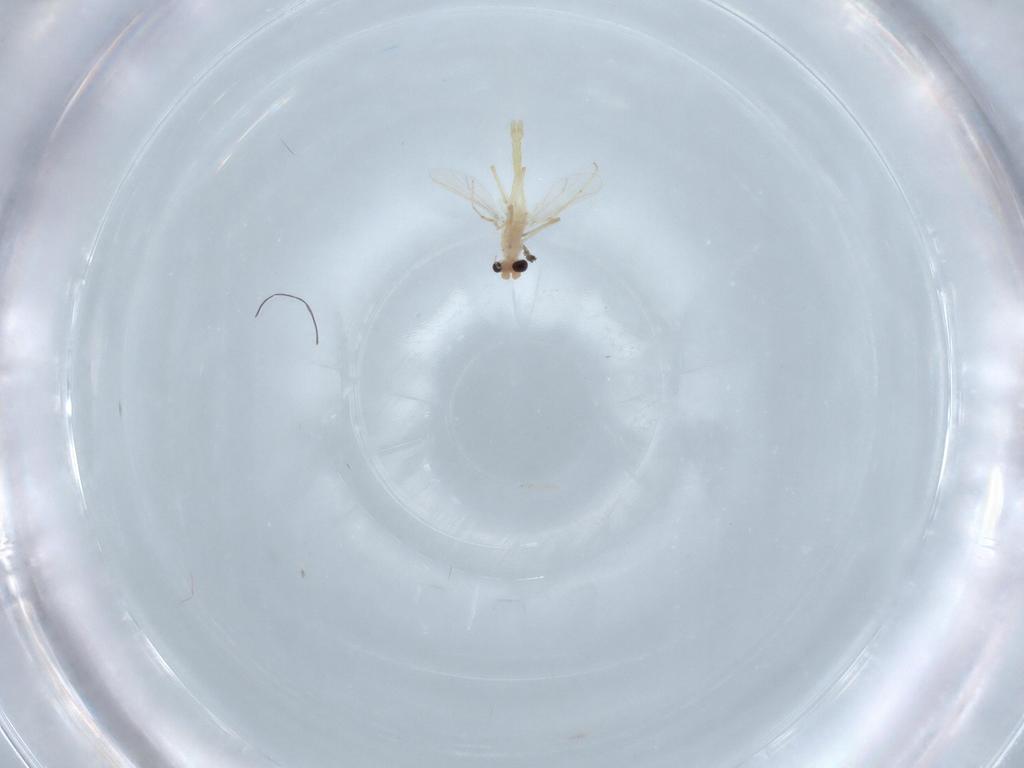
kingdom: Animalia
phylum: Arthropoda
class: Insecta
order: Diptera
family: Chironomidae
